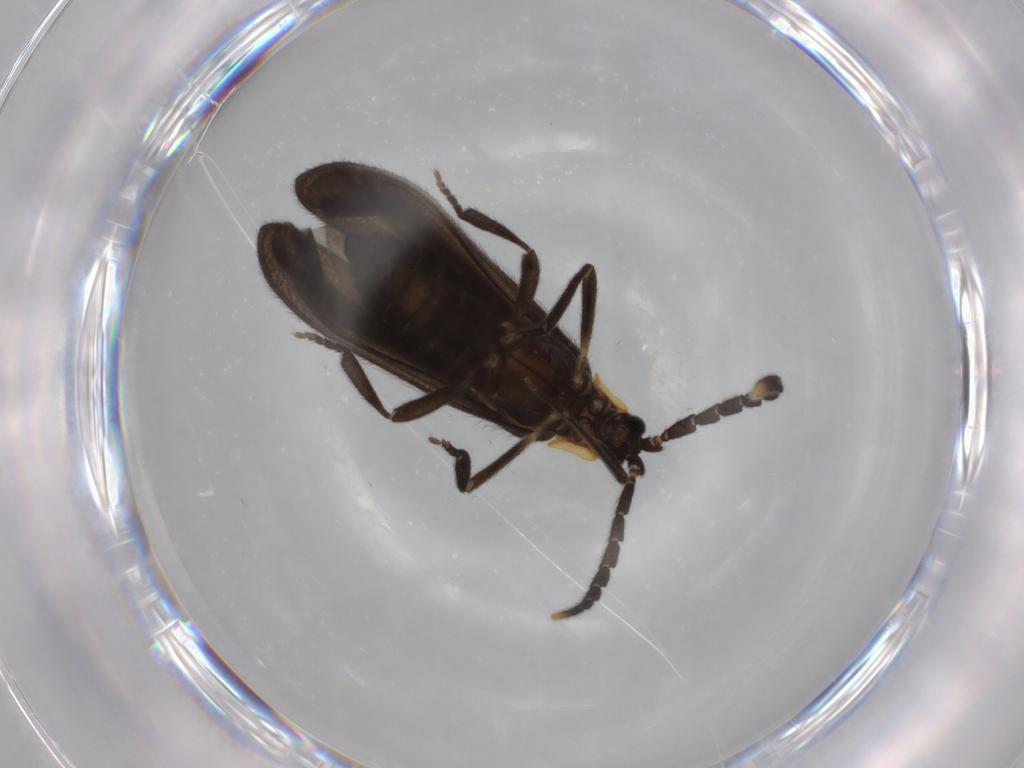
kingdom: Animalia
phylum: Arthropoda
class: Insecta
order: Coleoptera
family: Lycidae
